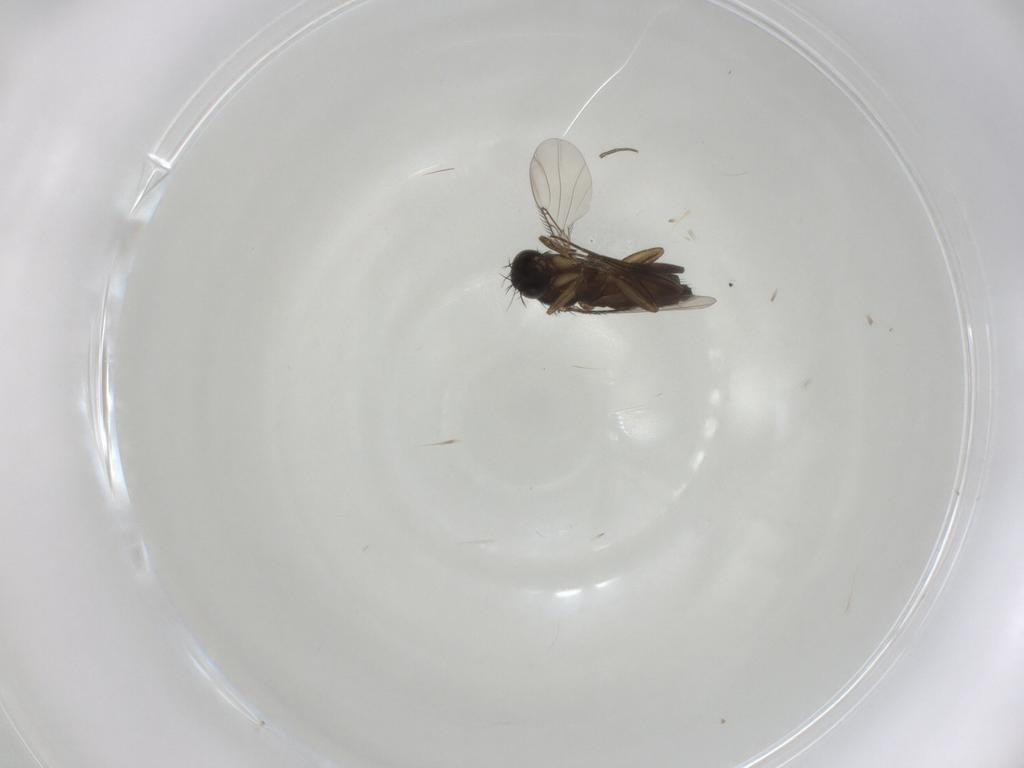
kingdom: Animalia
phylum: Arthropoda
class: Insecta
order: Diptera
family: Phoridae
